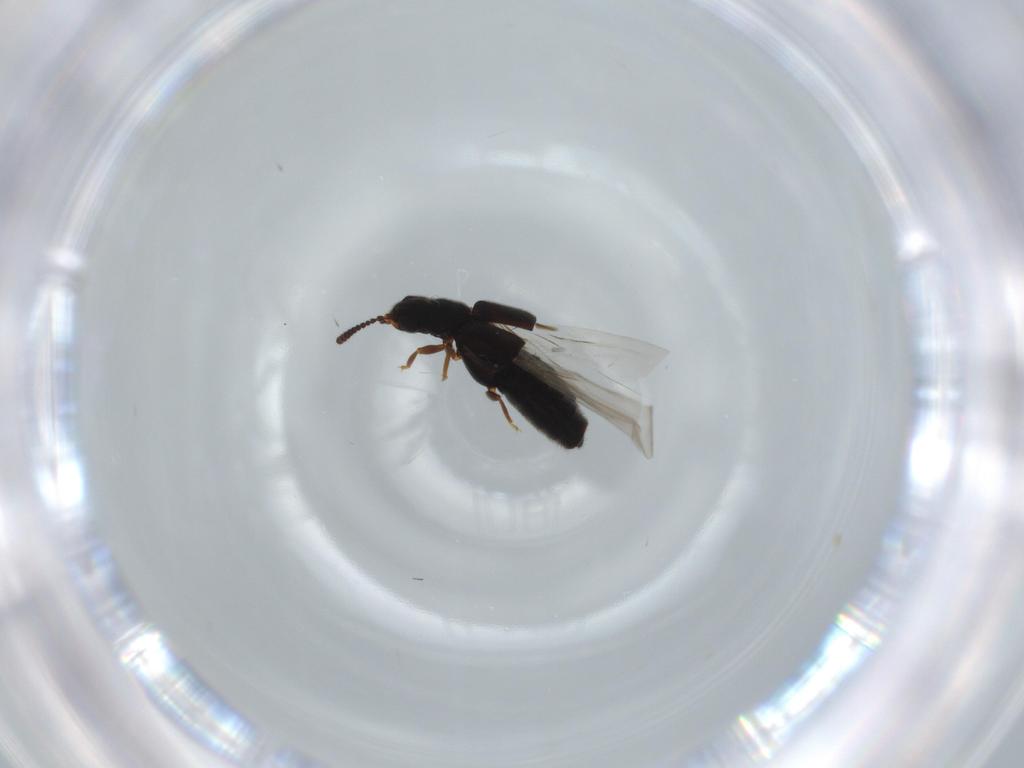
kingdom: Animalia
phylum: Arthropoda
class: Insecta
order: Coleoptera
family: Staphylinidae
